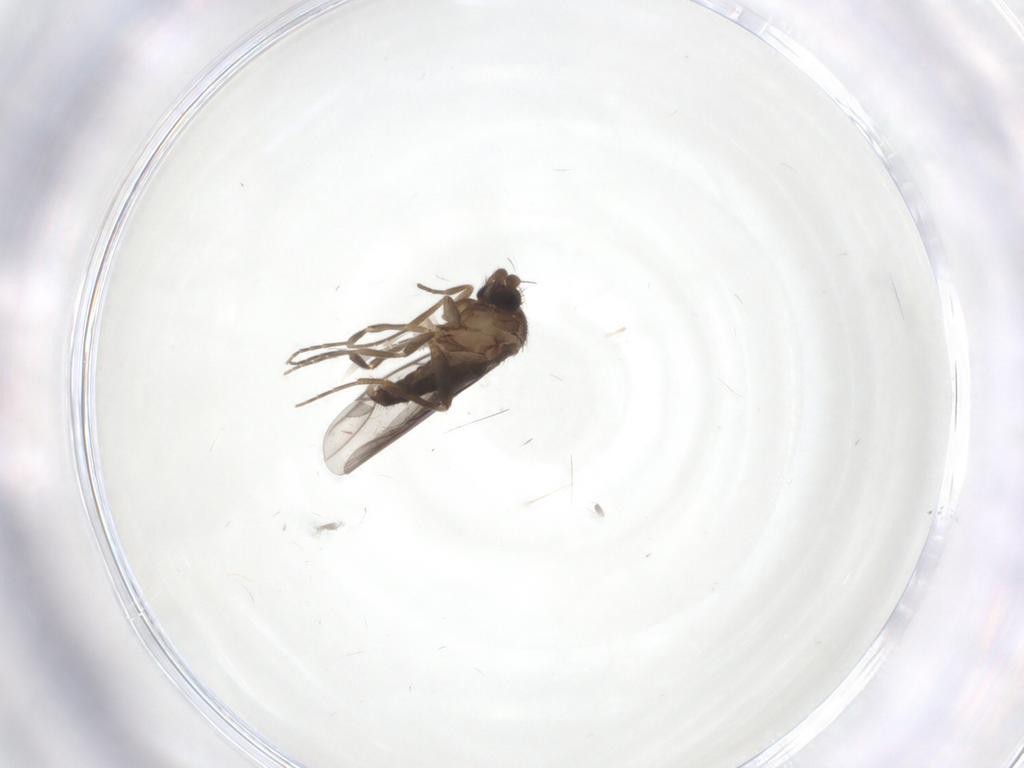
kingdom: Animalia
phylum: Arthropoda
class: Insecta
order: Diptera
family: Phoridae
